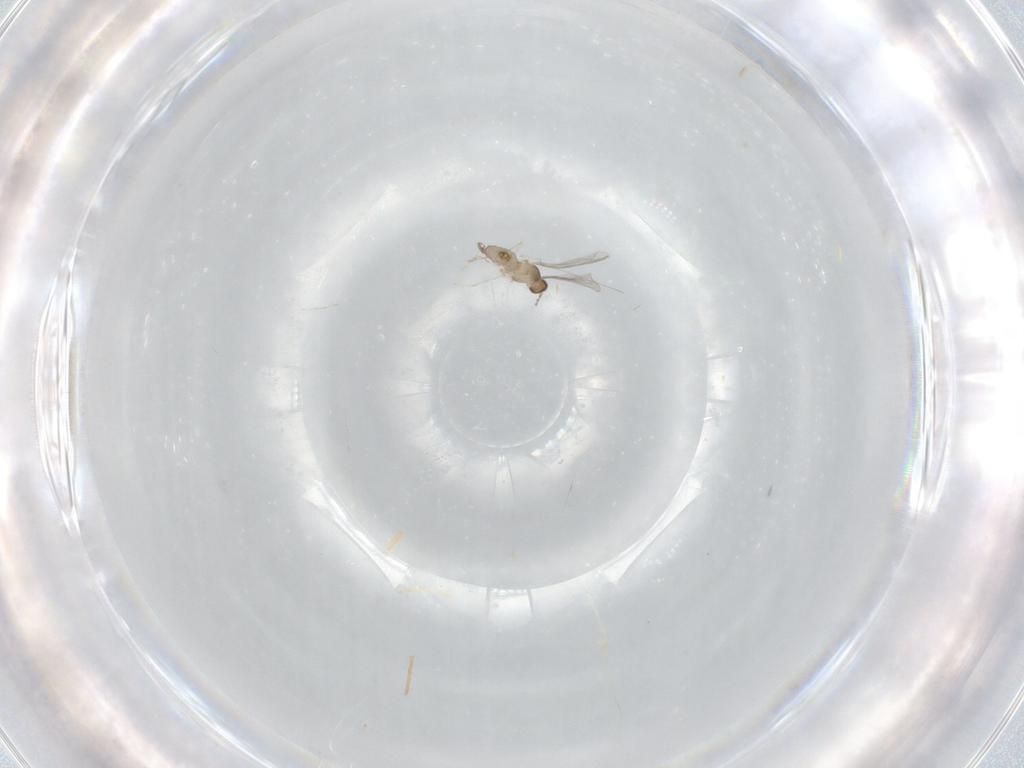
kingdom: Animalia
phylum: Arthropoda
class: Insecta
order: Diptera
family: Cecidomyiidae
